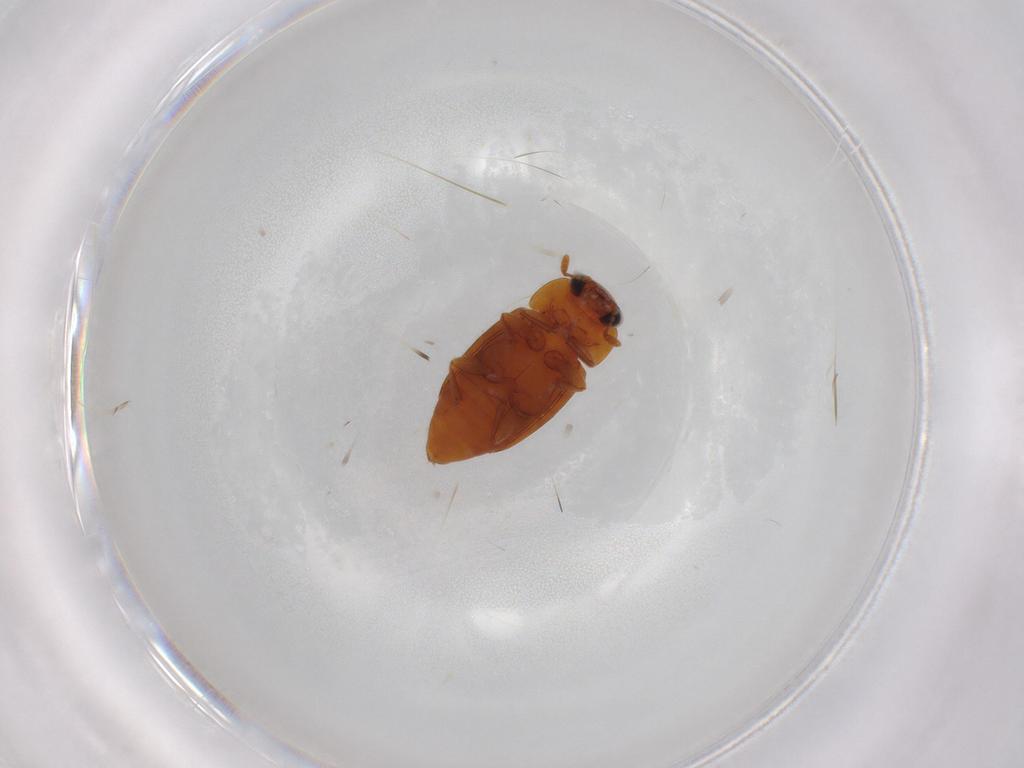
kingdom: Animalia
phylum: Arthropoda
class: Insecta
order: Coleoptera
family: Nitidulidae
